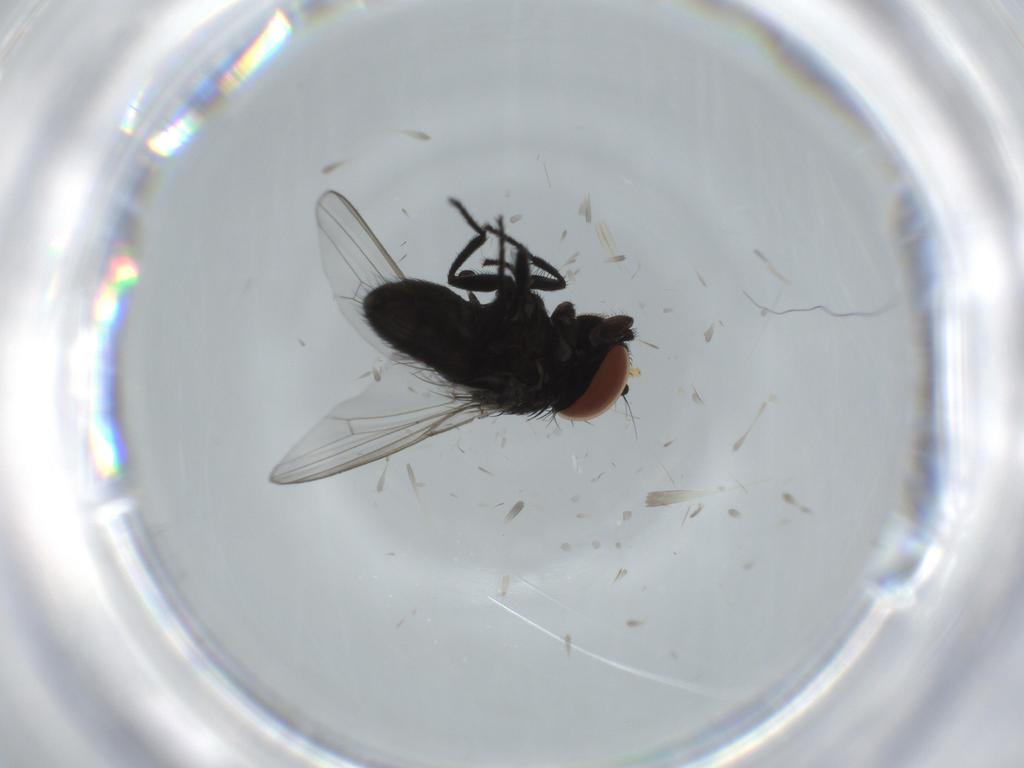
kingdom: Animalia
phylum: Arthropoda
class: Insecta
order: Diptera
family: Milichiidae
